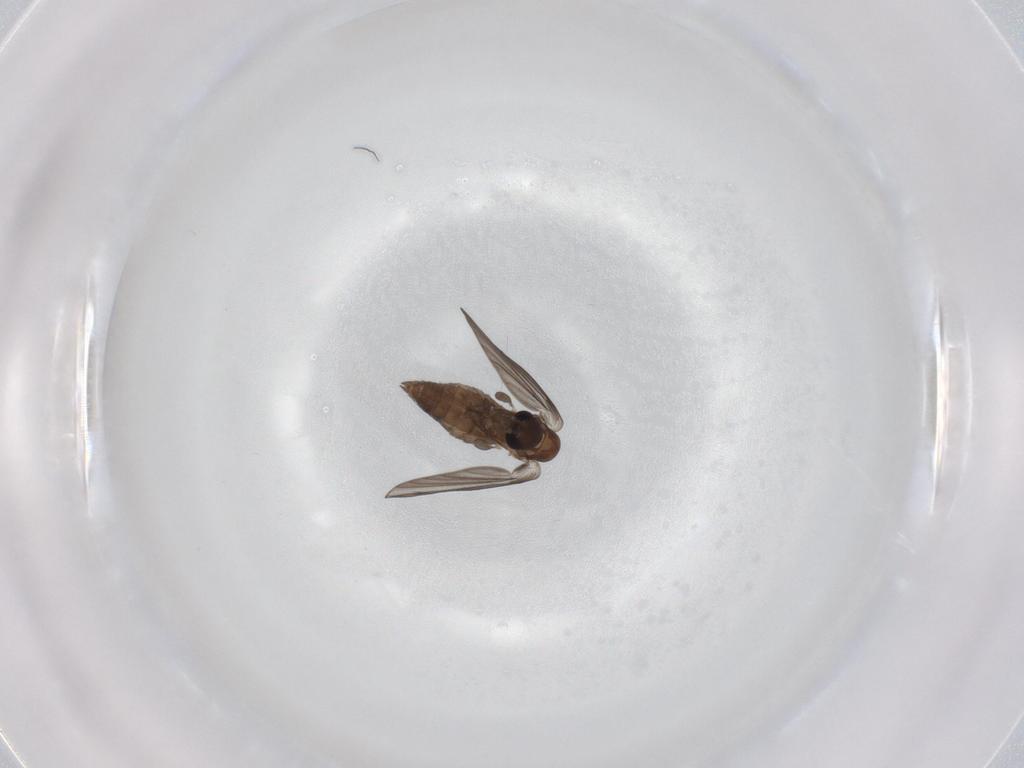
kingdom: Animalia
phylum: Arthropoda
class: Insecta
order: Diptera
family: Psychodidae
